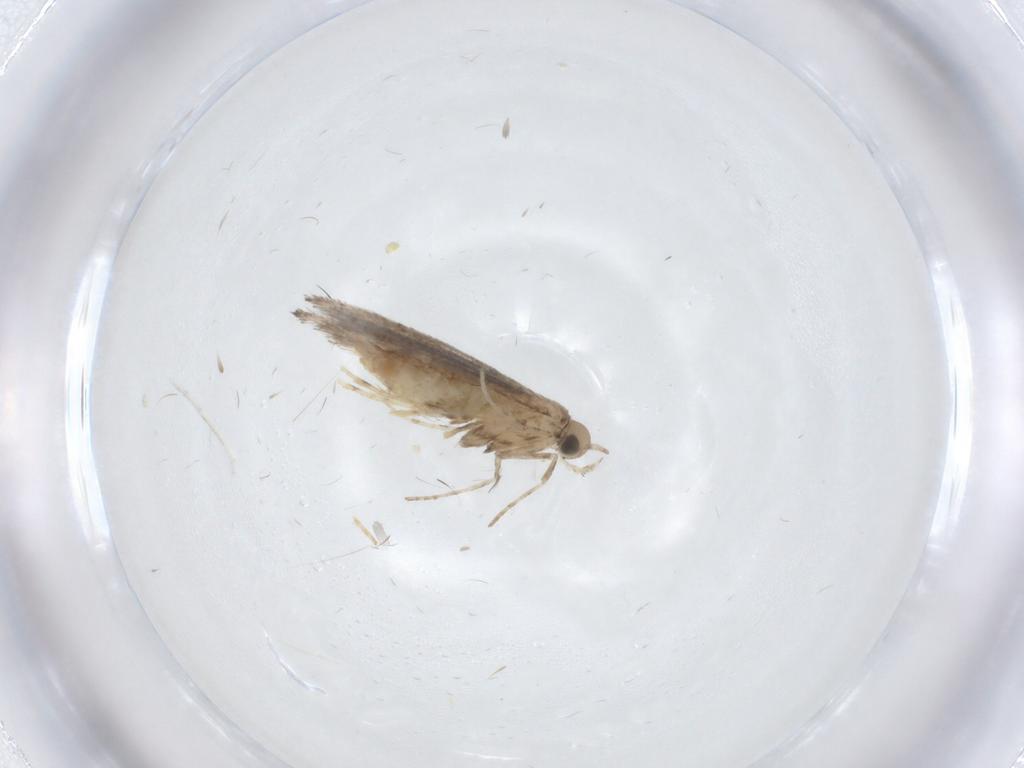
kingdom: Animalia
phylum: Arthropoda
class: Insecta
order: Lepidoptera
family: Gracillariidae
